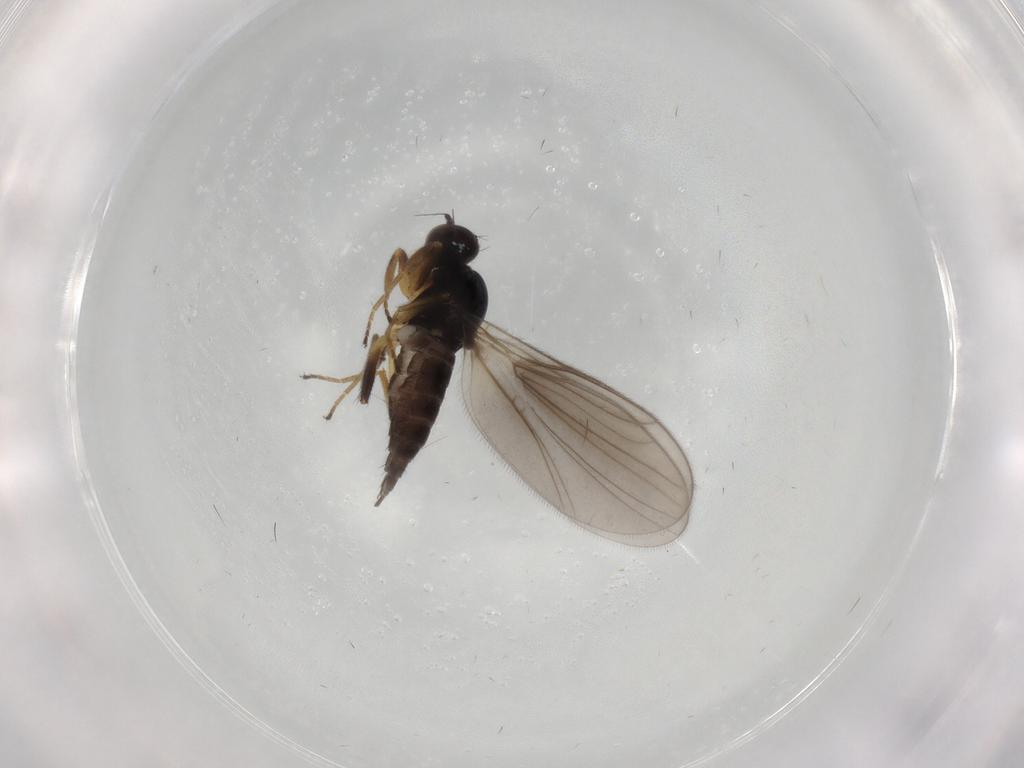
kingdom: Animalia
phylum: Arthropoda
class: Insecta
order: Diptera
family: Hybotidae
